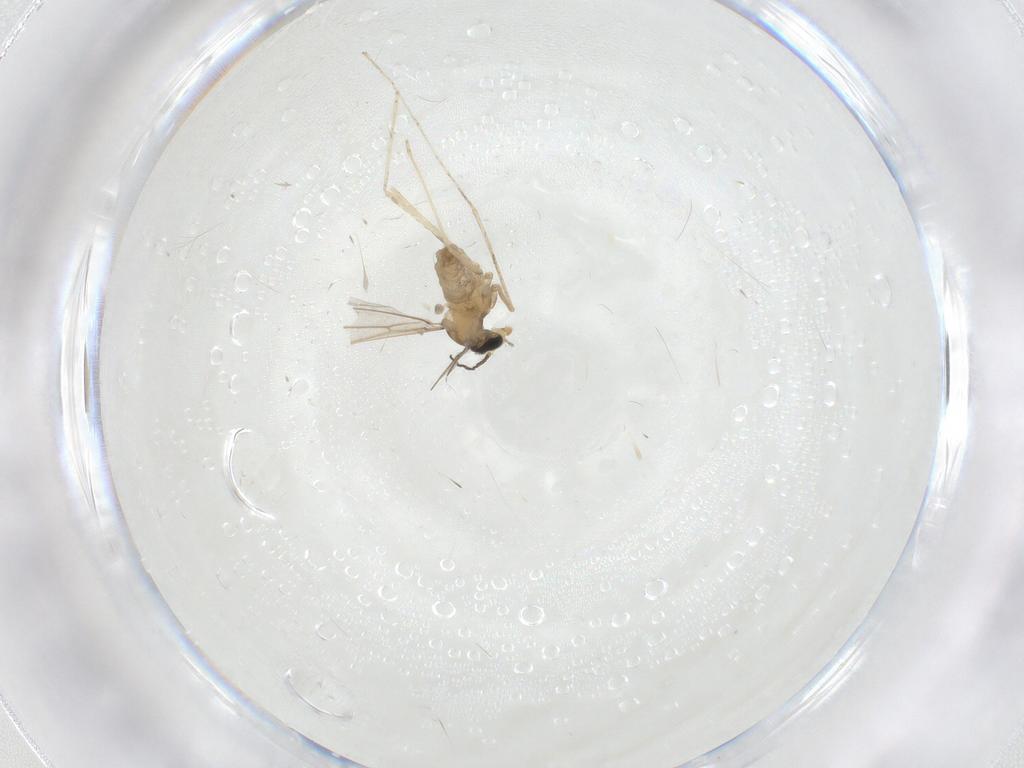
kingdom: Animalia
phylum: Arthropoda
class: Insecta
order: Diptera
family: Cecidomyiidae
